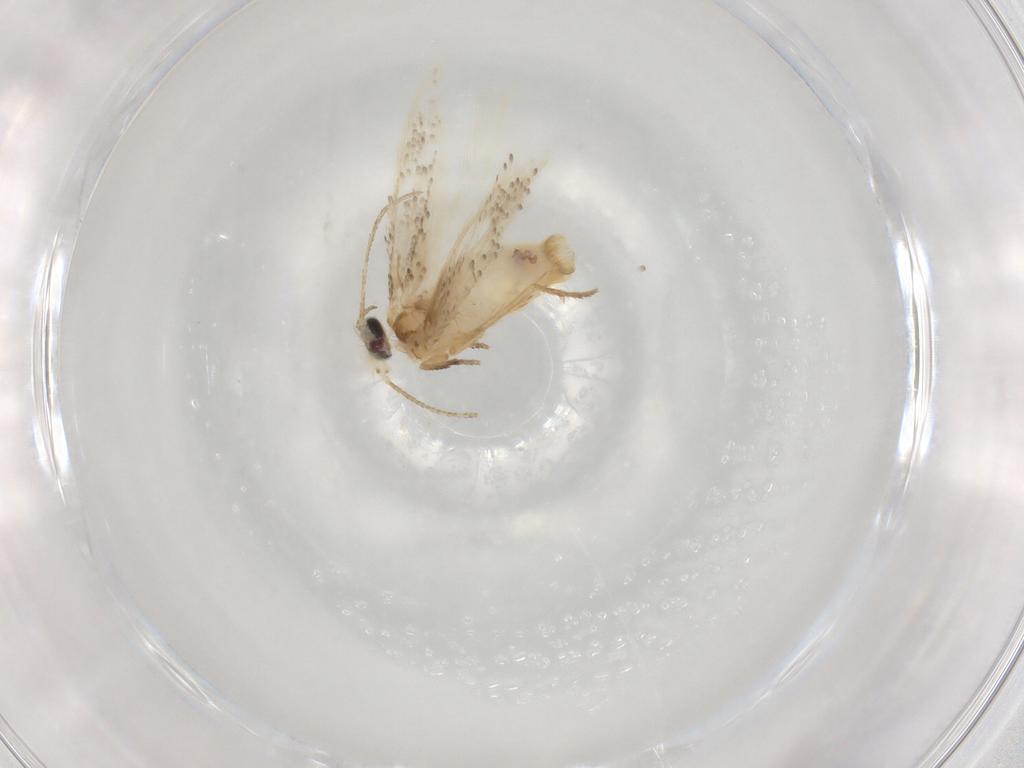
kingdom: Animalia
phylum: Arthropoda
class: Insecta
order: Lepidoptera
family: Nepticulidae
